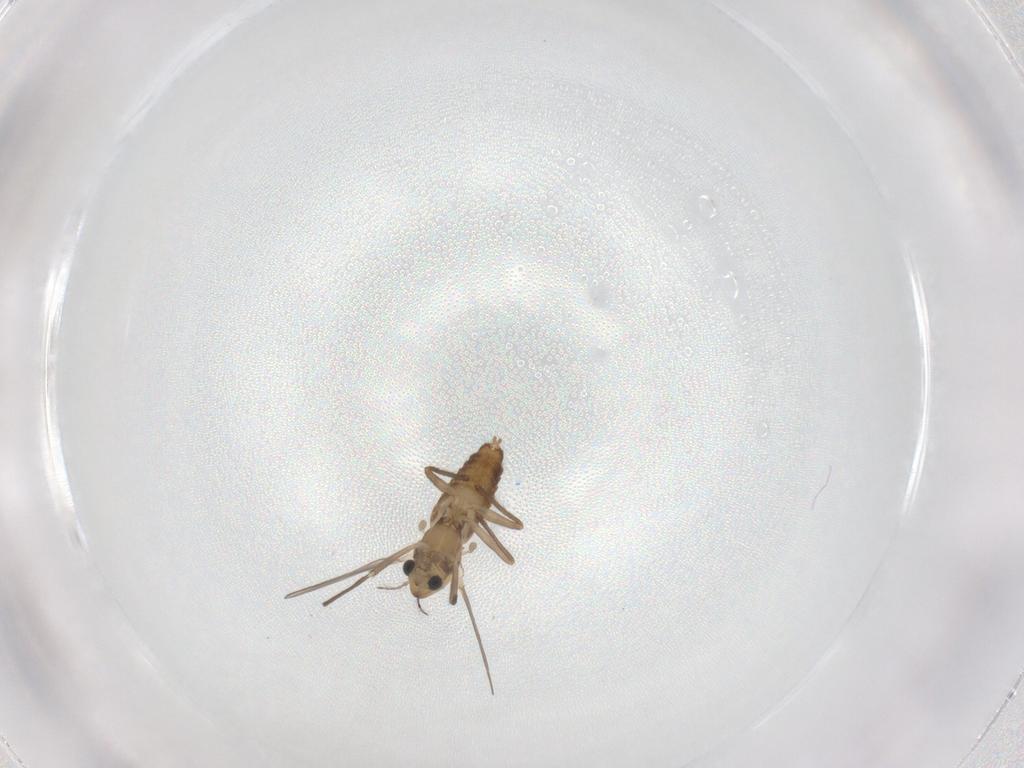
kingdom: Animalia
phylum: Arthropoda
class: Insecta
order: Diptera
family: Chironomidae
